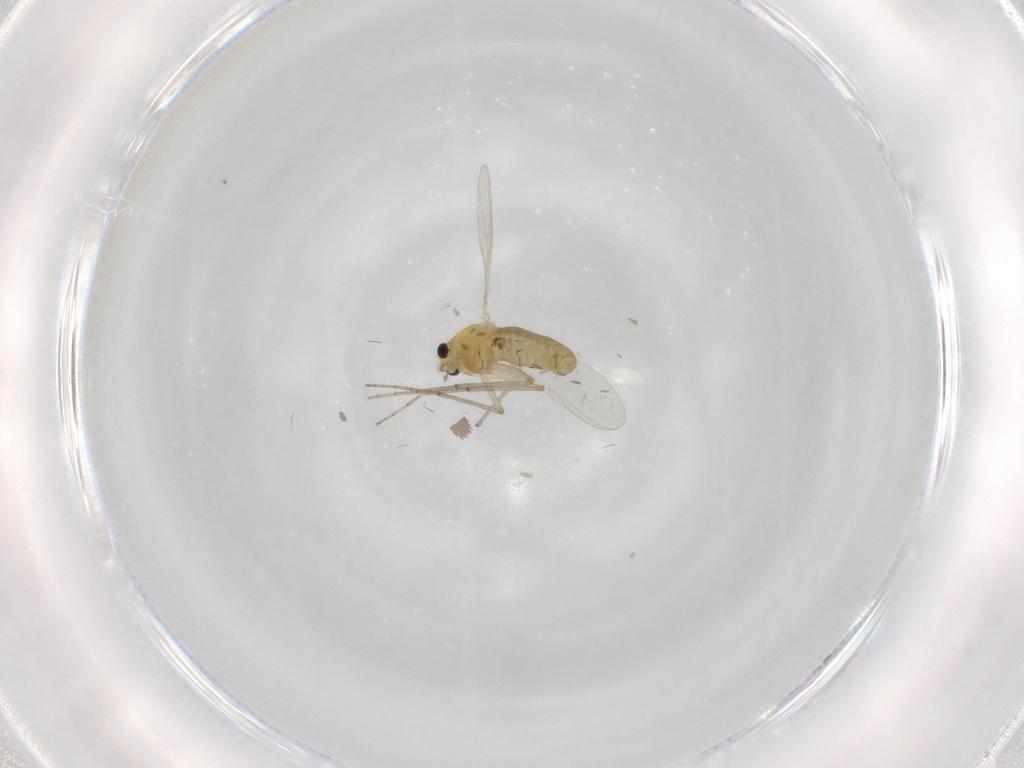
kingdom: Animalia
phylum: Arthropoda
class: Insecta
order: Diptera
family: Chironomidae
